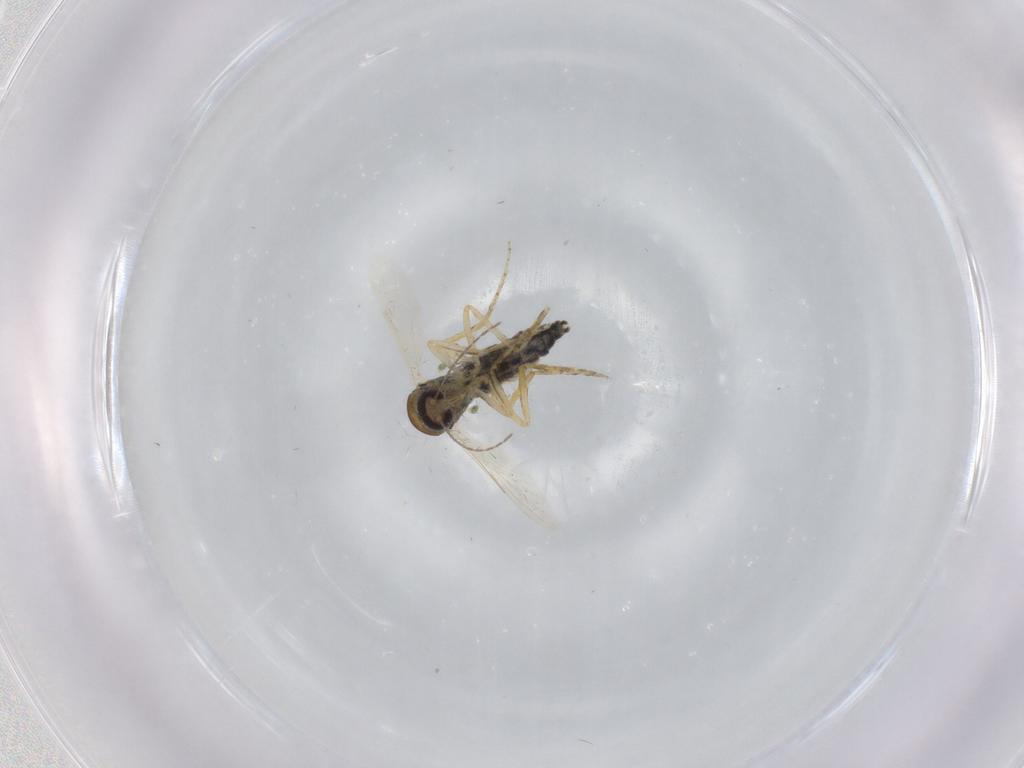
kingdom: Animalia
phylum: Arthropoda
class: Insecta
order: Diptera
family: Ceratopogonidae
